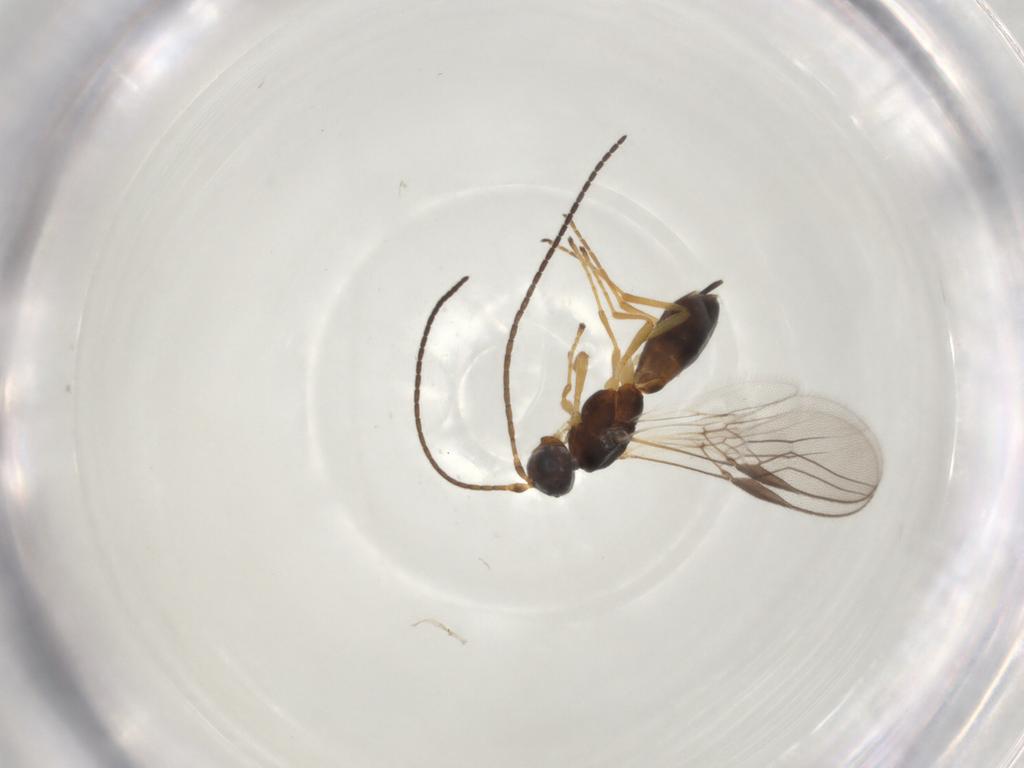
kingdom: Animalia
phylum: Arthropoda
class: Insecta
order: Hymenoptera
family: Braconidae
